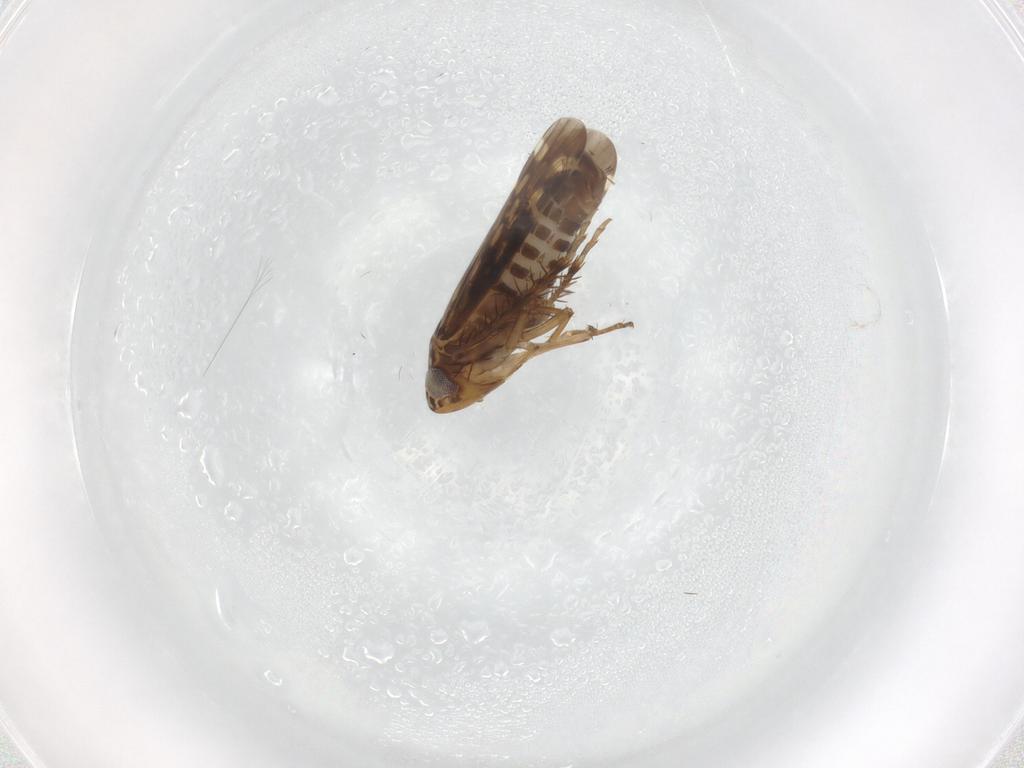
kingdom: Animalia
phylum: Arthropoda
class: Insecta
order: Hemiptera
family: Cicadellidae
